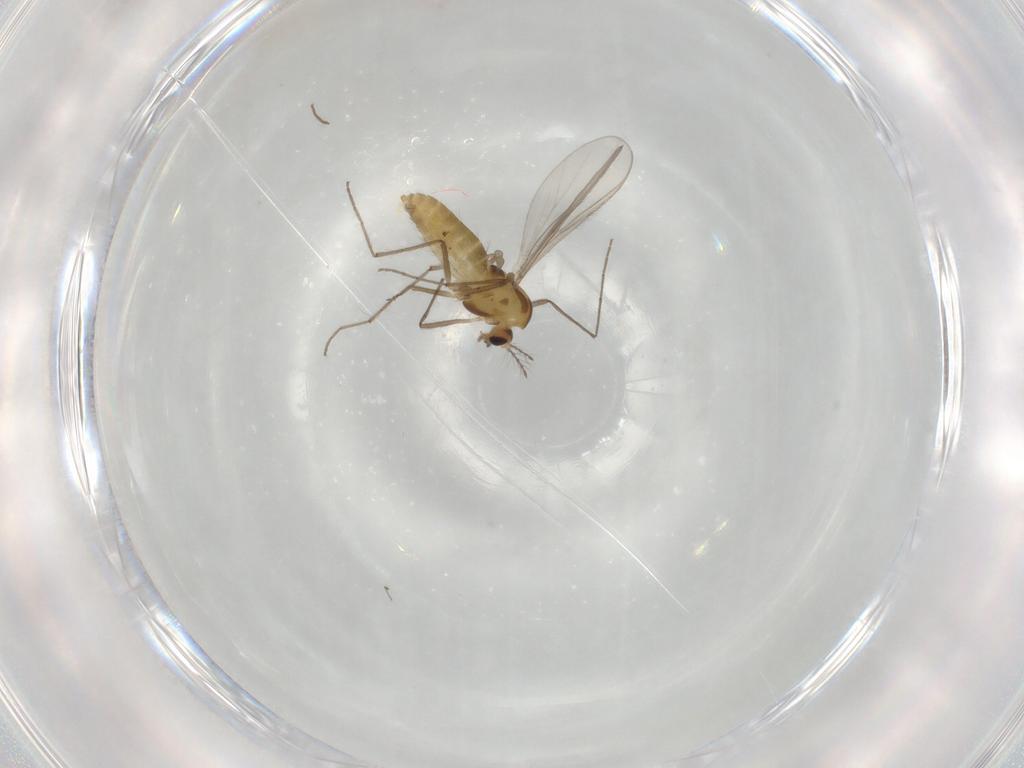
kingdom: Animalia
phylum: Arthropoda
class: Insecta
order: Diptera
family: Chironomidae
